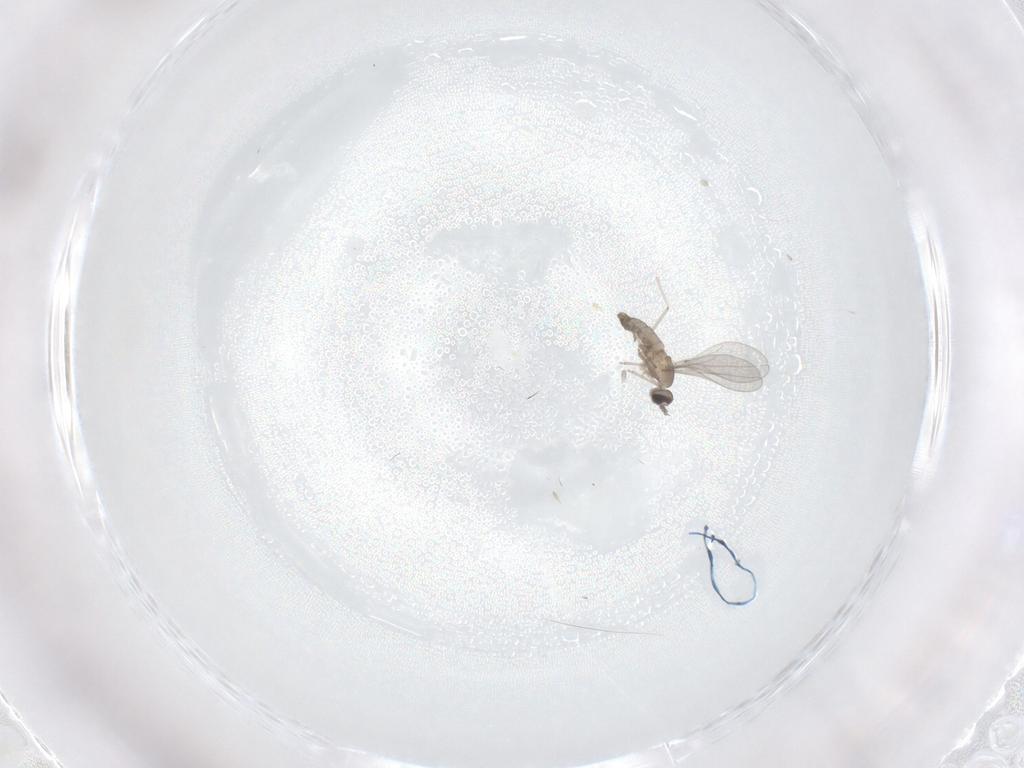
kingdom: Animalia
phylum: Arthropoda
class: Insecta
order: Diptera
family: Cecidomyiidae
